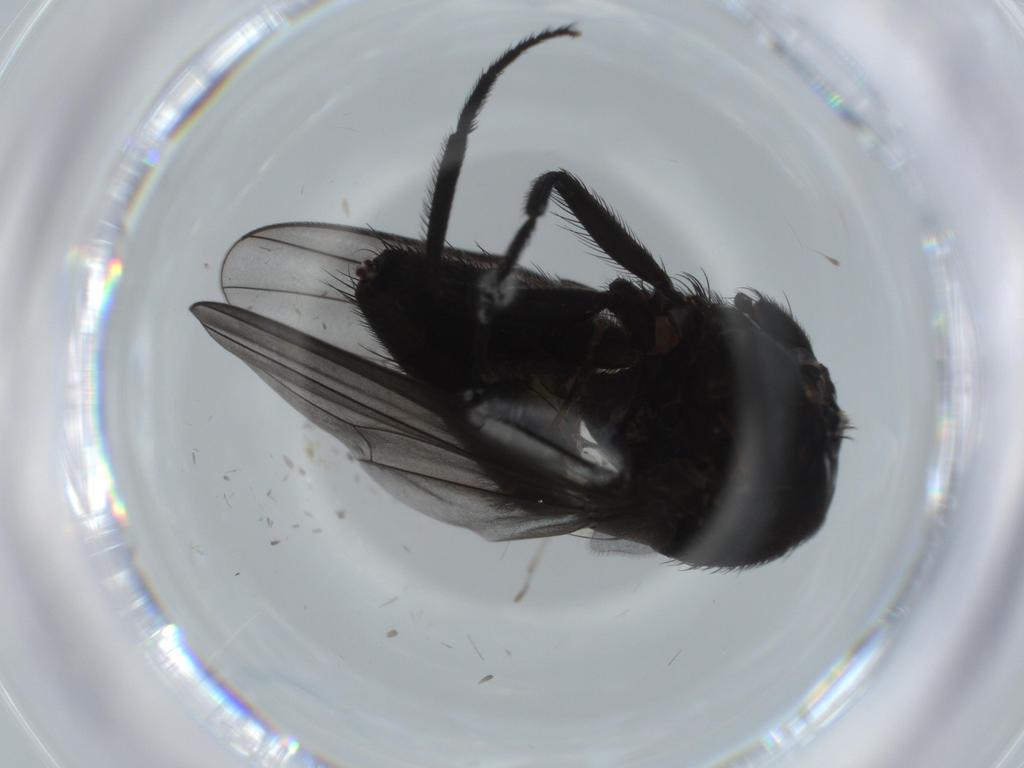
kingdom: Animalia
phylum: Arthropoda
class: Insecta
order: Diptera
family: Milichiidae
